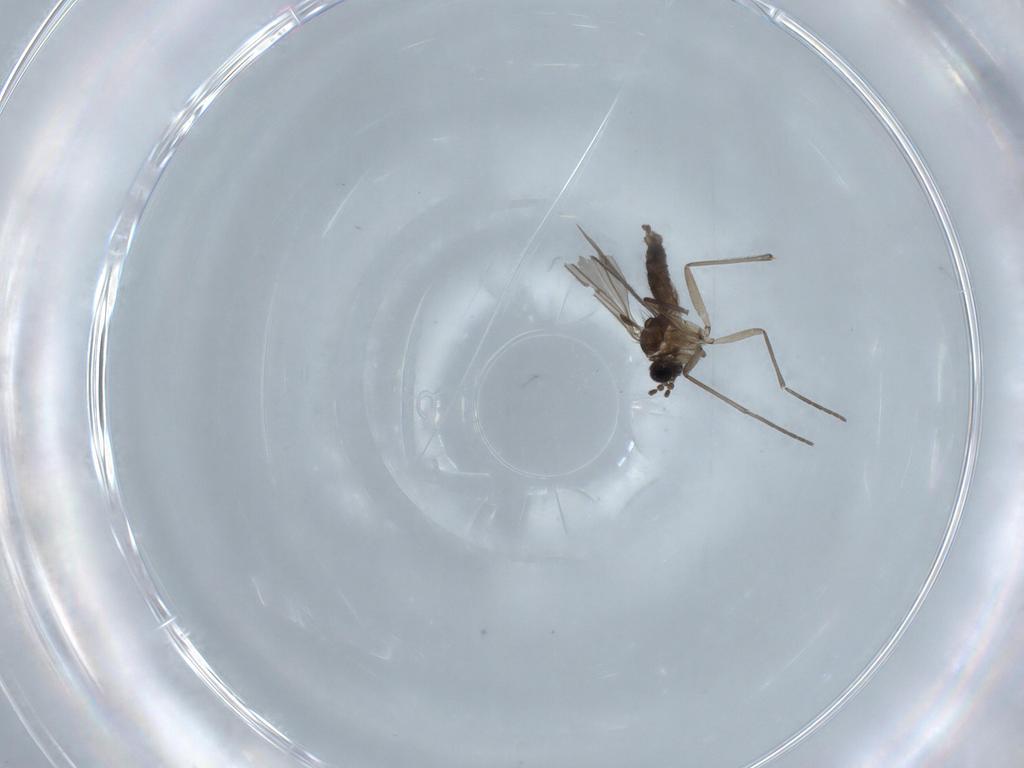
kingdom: Animalia
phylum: Arthropoda
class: Insecta
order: Diptera
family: Sciaridae
